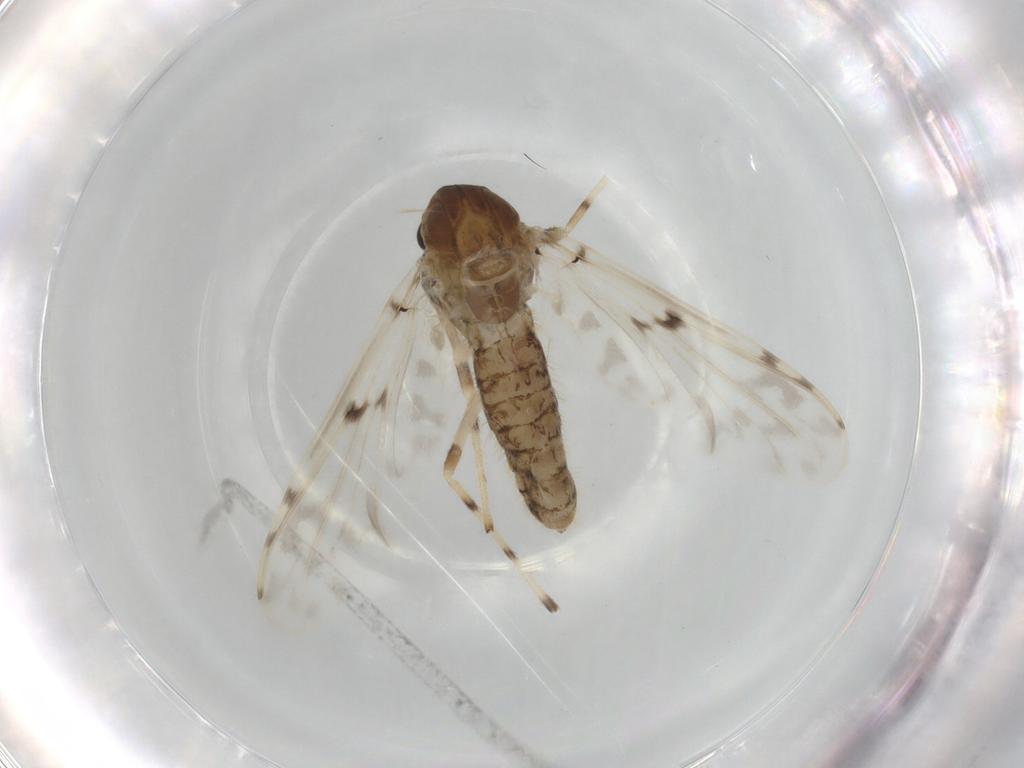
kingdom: Animalia
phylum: Arthropoda
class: Insecta
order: Diptera
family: Chironomidae
